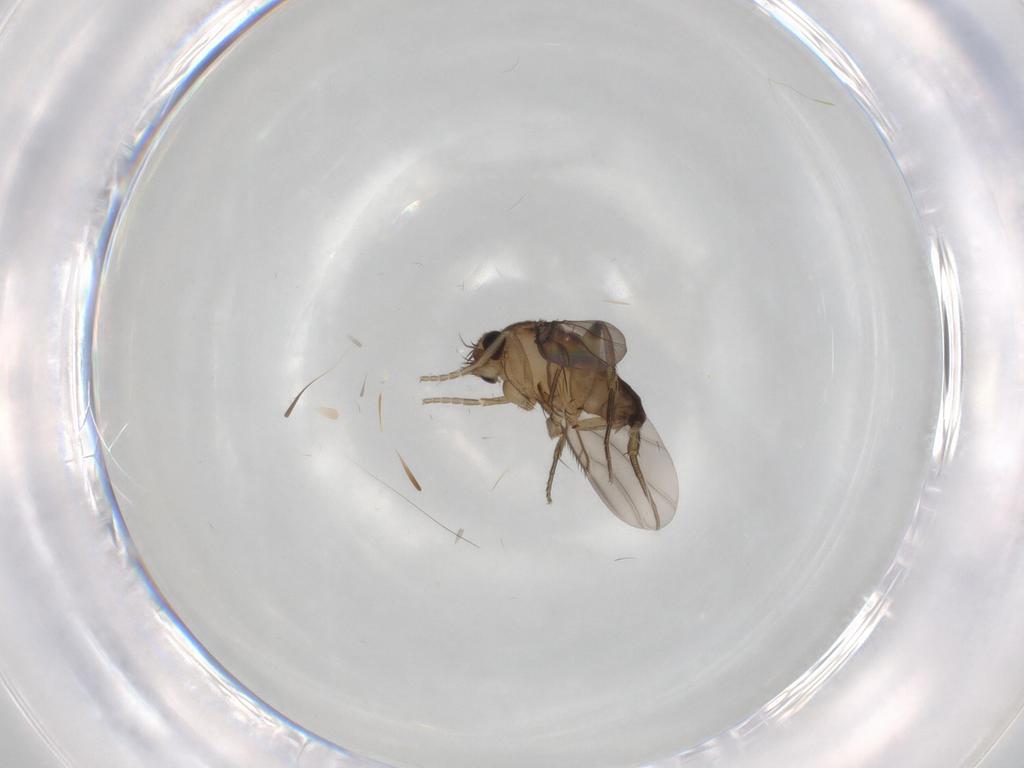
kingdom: Animalia
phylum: Arthropoda
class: Insecta
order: Diptera
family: Phoridae
